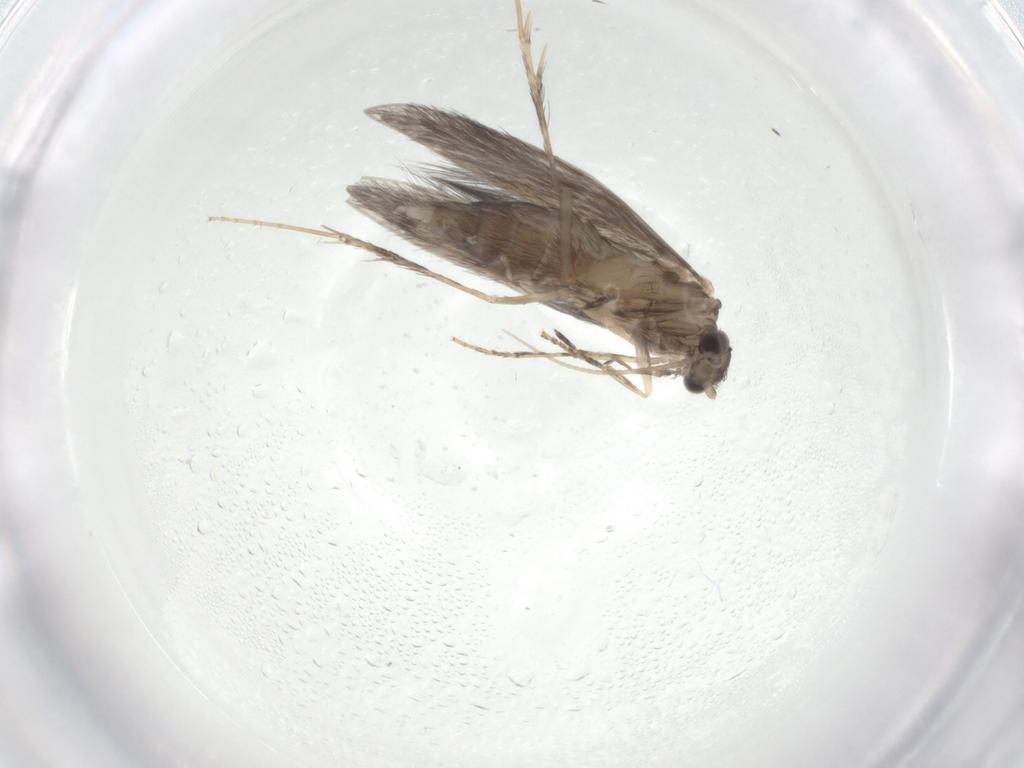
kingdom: Animalia
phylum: Arthropoda
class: Insecta
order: Trichoptera
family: Hydroptilidae
